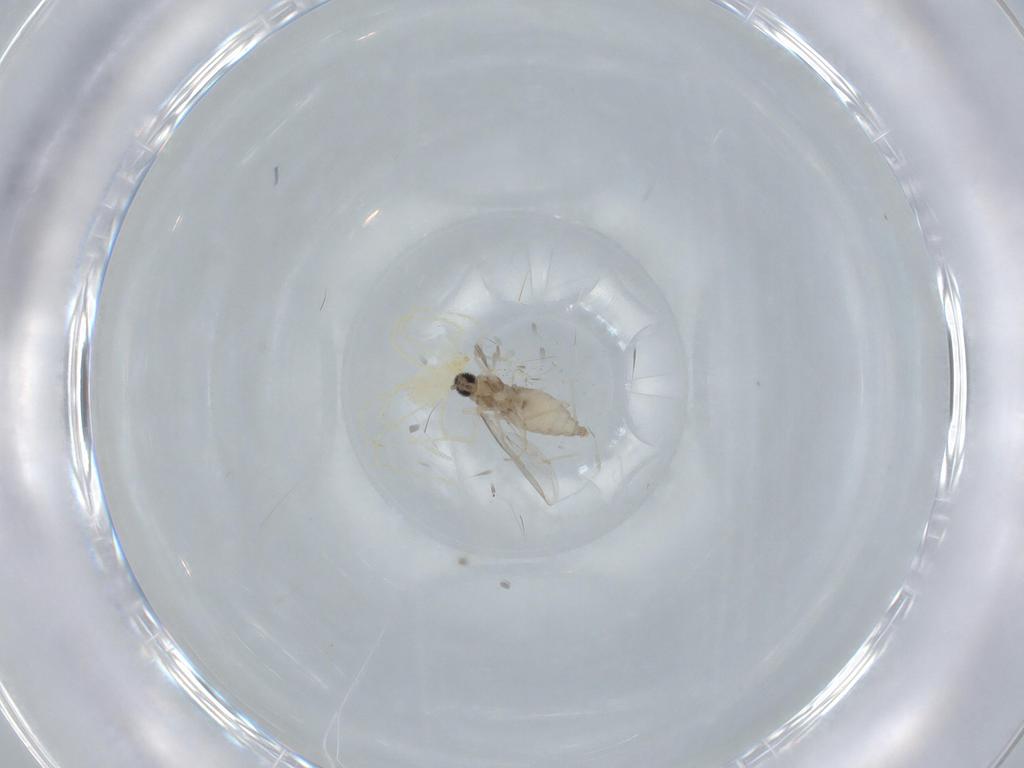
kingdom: Animalia
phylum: Arthropoda
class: Insecta
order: Diptera
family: Cecidomyiidae
